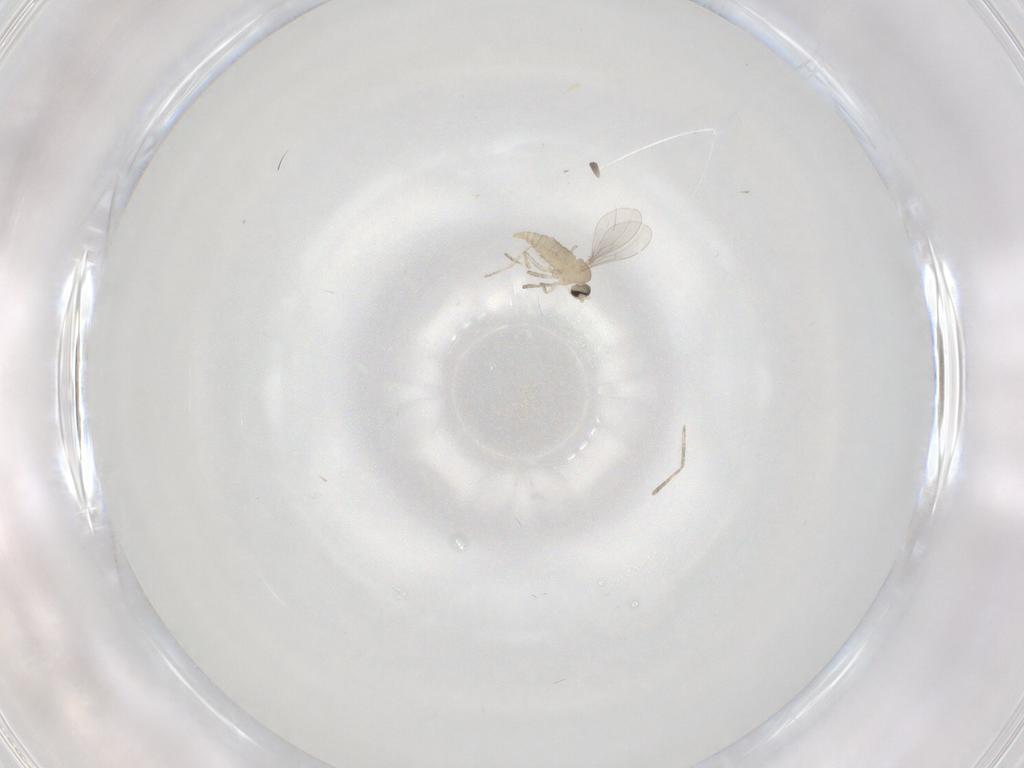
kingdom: Animalia
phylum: Arthropoda
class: Insecta
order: Diptera
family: Cecidomyiidae
